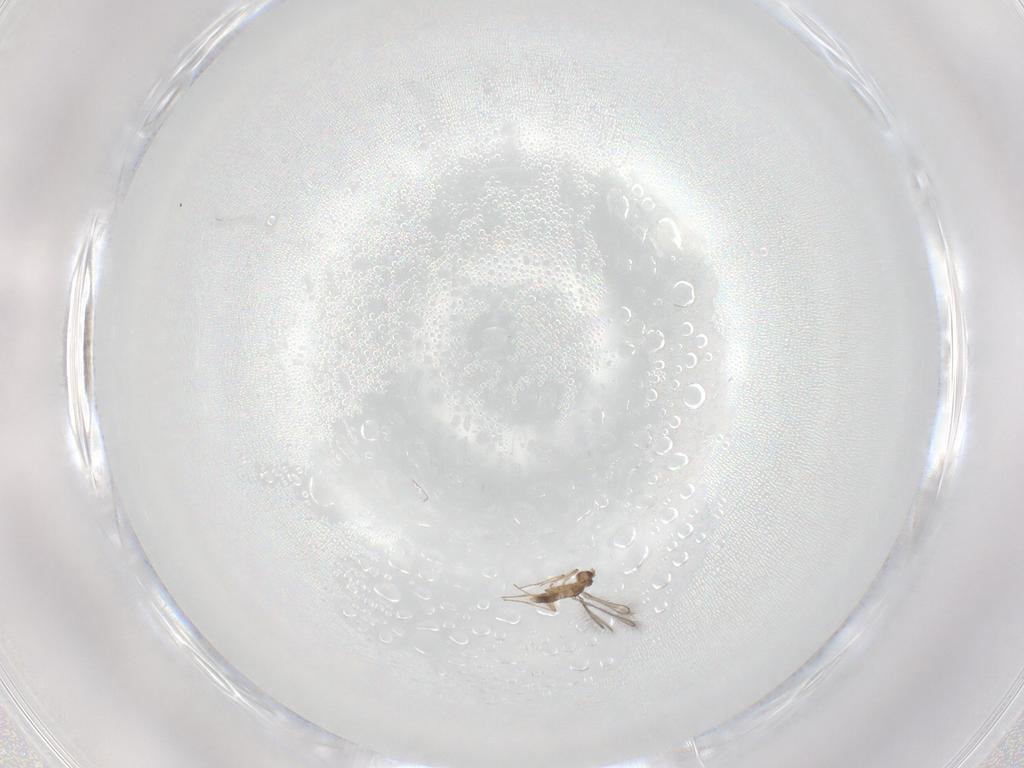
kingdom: Animalia
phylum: Arthropoda
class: Insecta
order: Hymenoptera
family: Mymaridae
